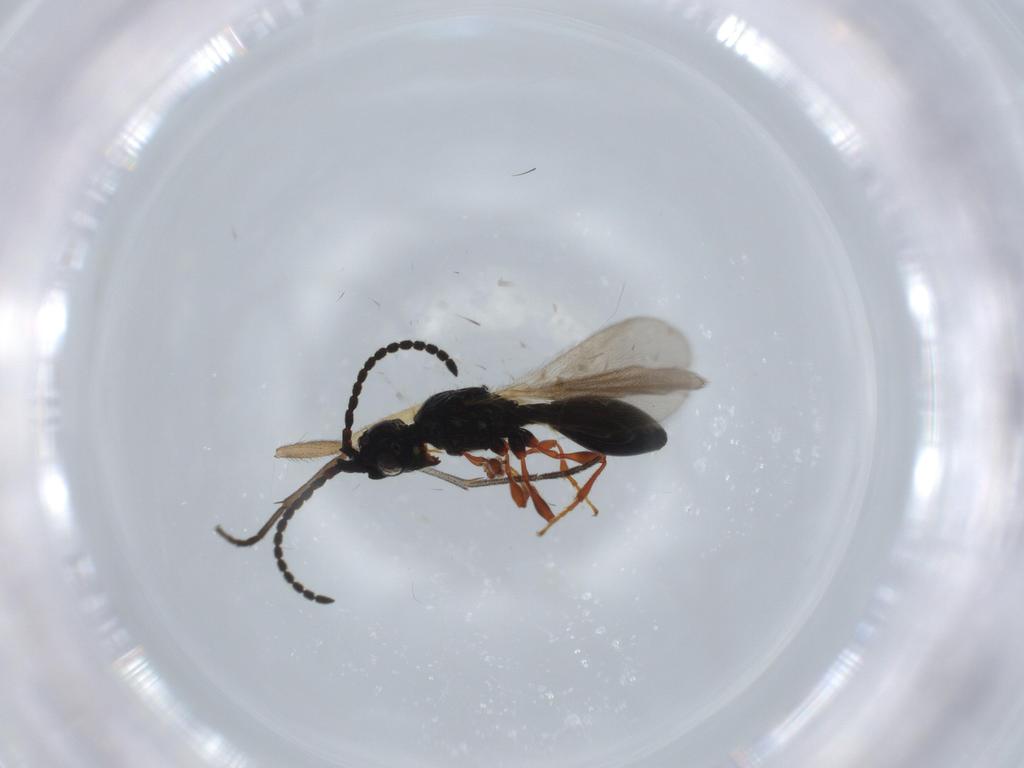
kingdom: Animalia
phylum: Arthropoda
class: Insecta
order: Hymenoptera
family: Diapriidae
